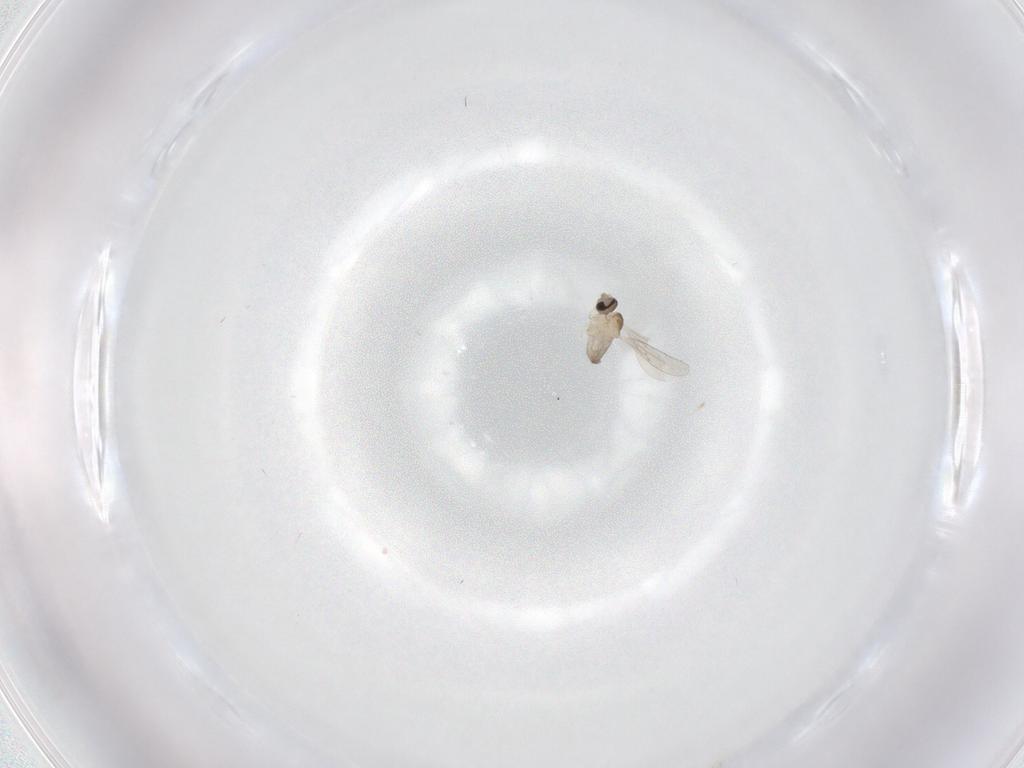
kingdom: Animalia
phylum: Arthropoda
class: Insecta
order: Diptera
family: Cecidomyiidae
